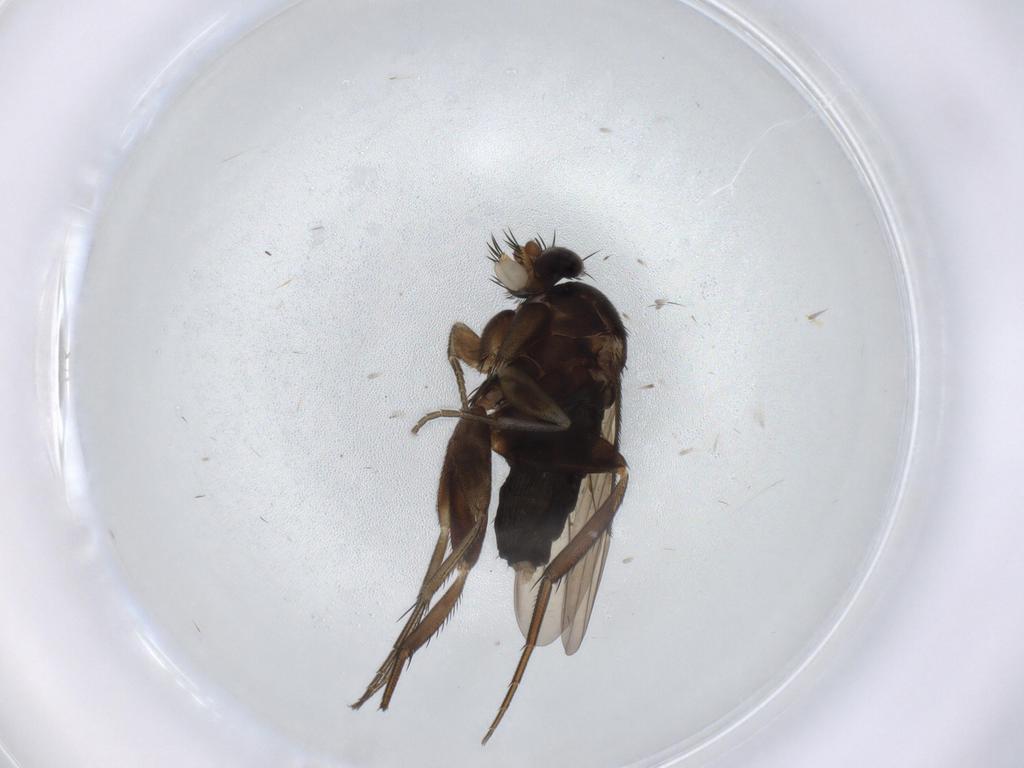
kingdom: Animalia
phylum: Arthropoda
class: Insecta
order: Diptera
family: Phoridae
